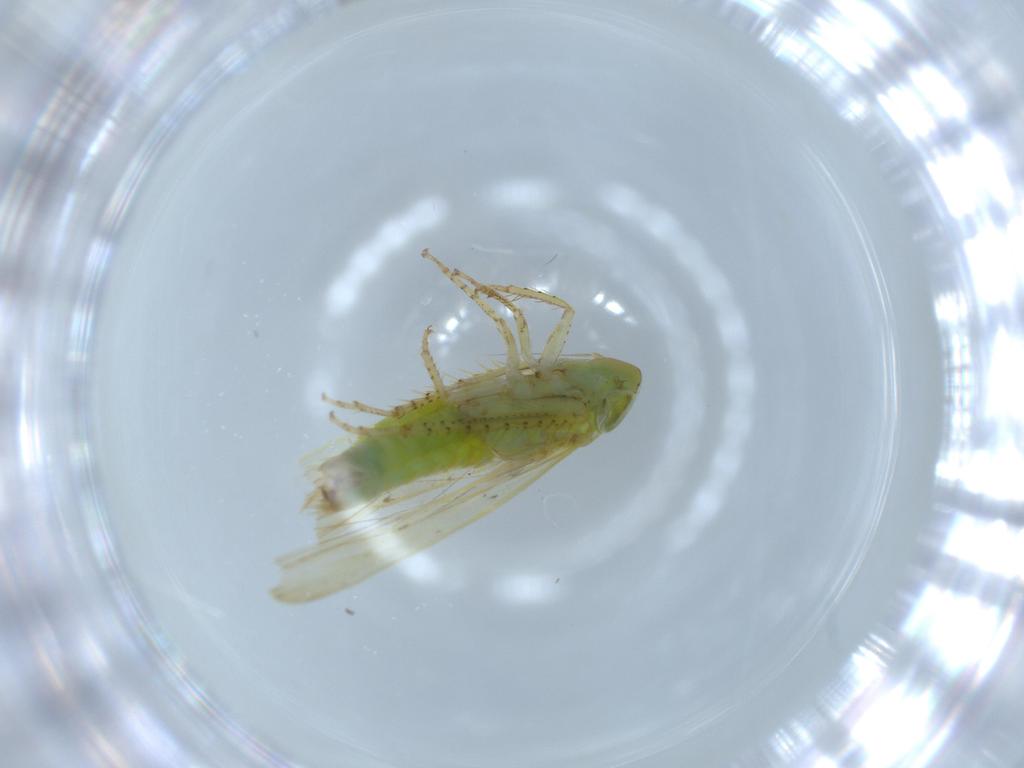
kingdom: Animalia
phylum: Arthropoda
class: Insecta
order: Hemiptera
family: Cicadellidae
